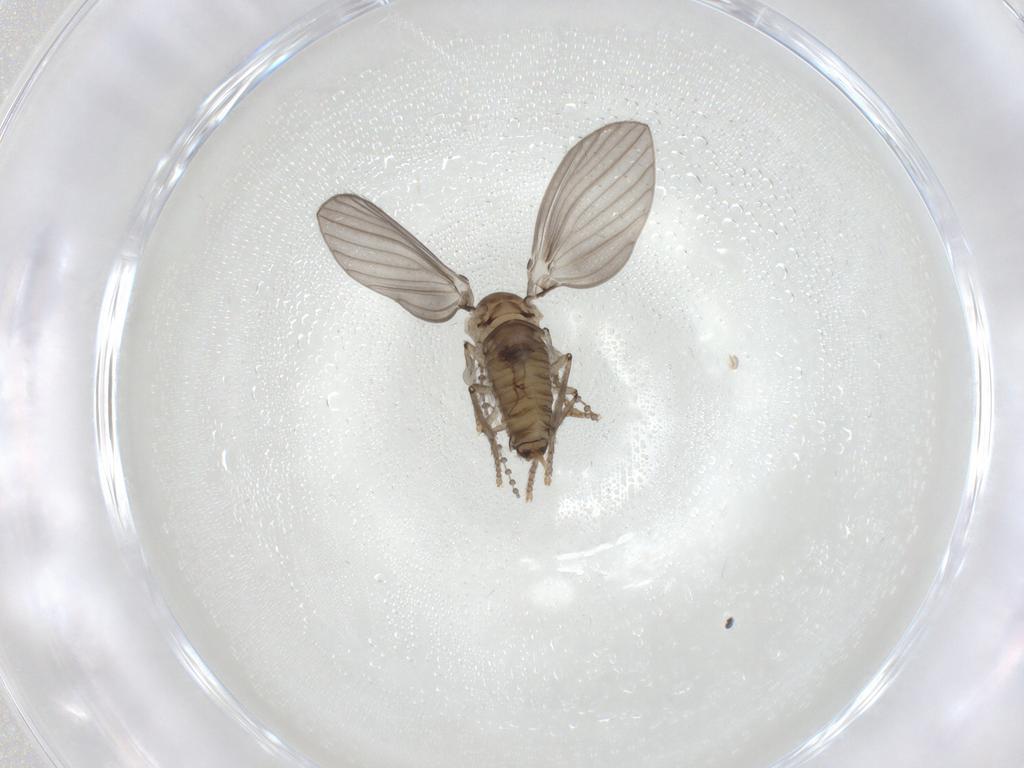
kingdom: Animalia
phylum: Arthropoda
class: Insecta
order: Diptera
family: Psychodidae
